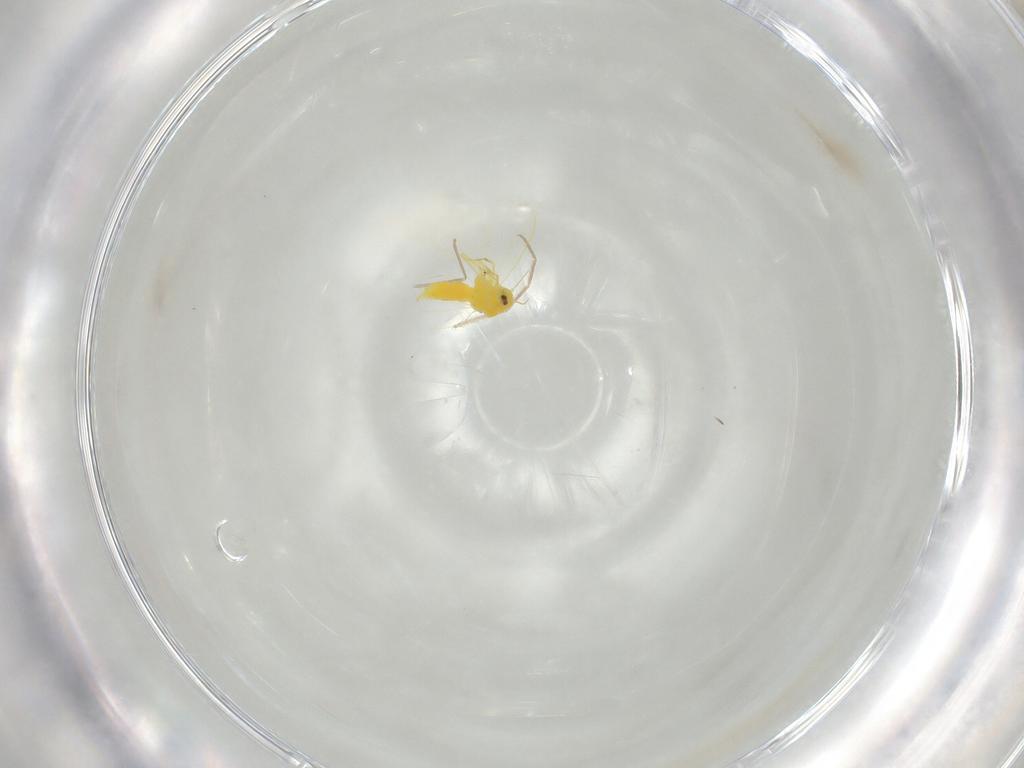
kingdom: Animalia
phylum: Arthropoda
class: Insecta
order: Hemiptera
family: Aleyrodidae
